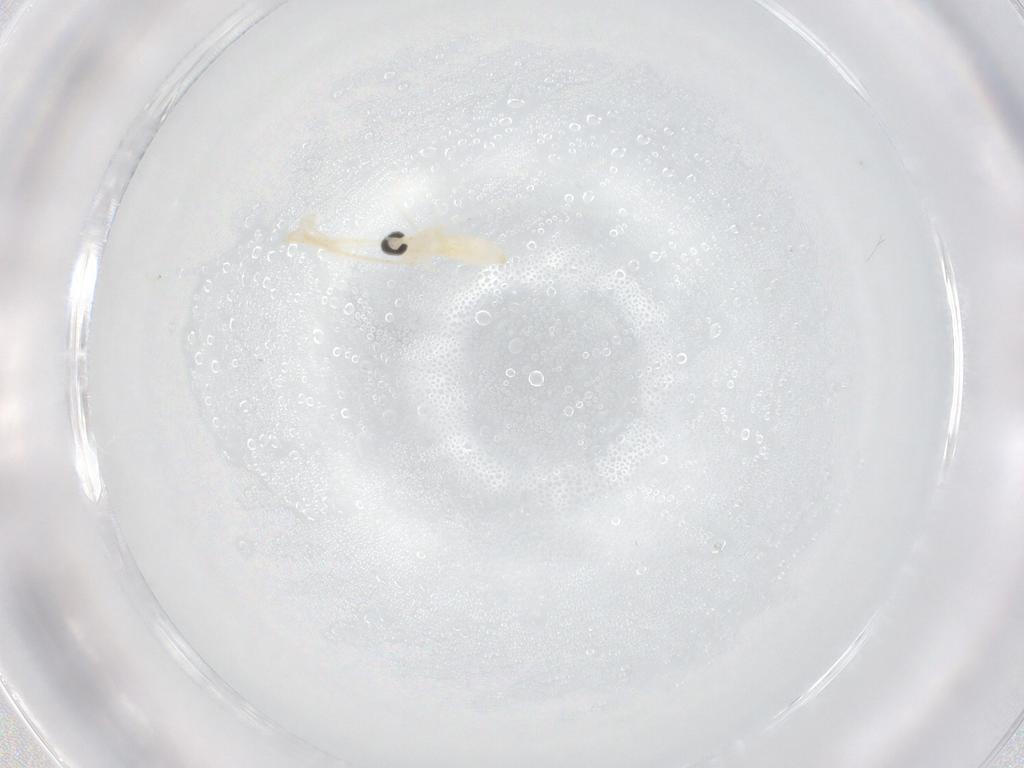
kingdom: Animalia
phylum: Arthropoda
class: Insecta
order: Diptera
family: Cecidomyiidae
